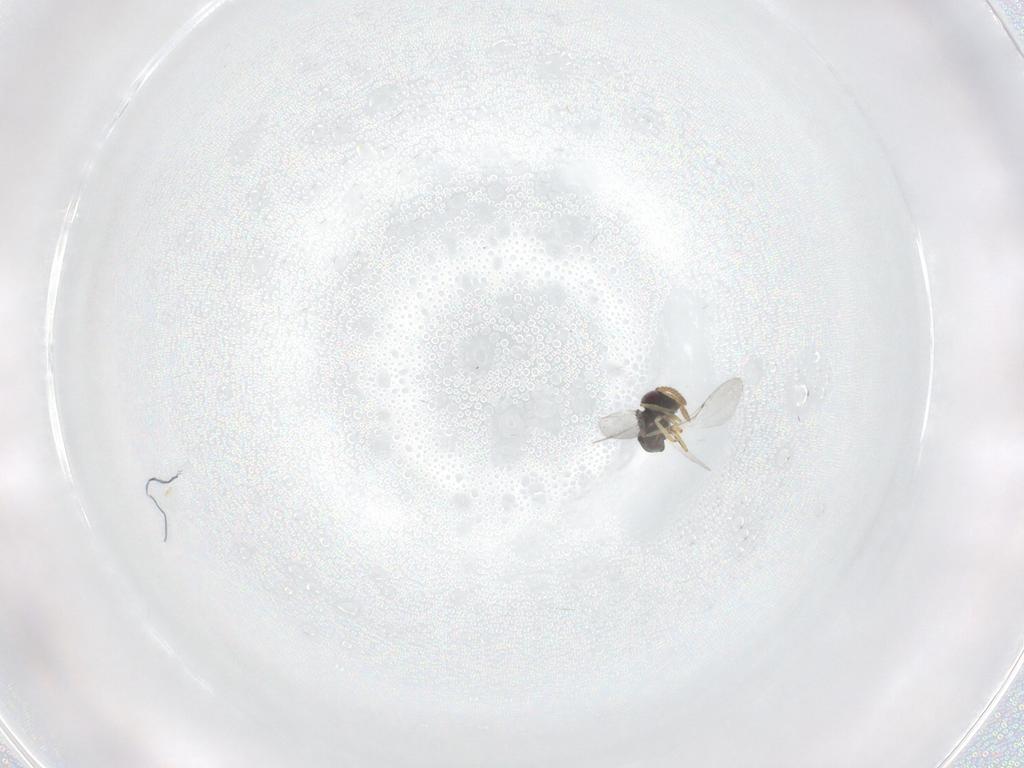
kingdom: Animalia
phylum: Arthropoda
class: Insecta
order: Hymenoptera
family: Encyrtidae
